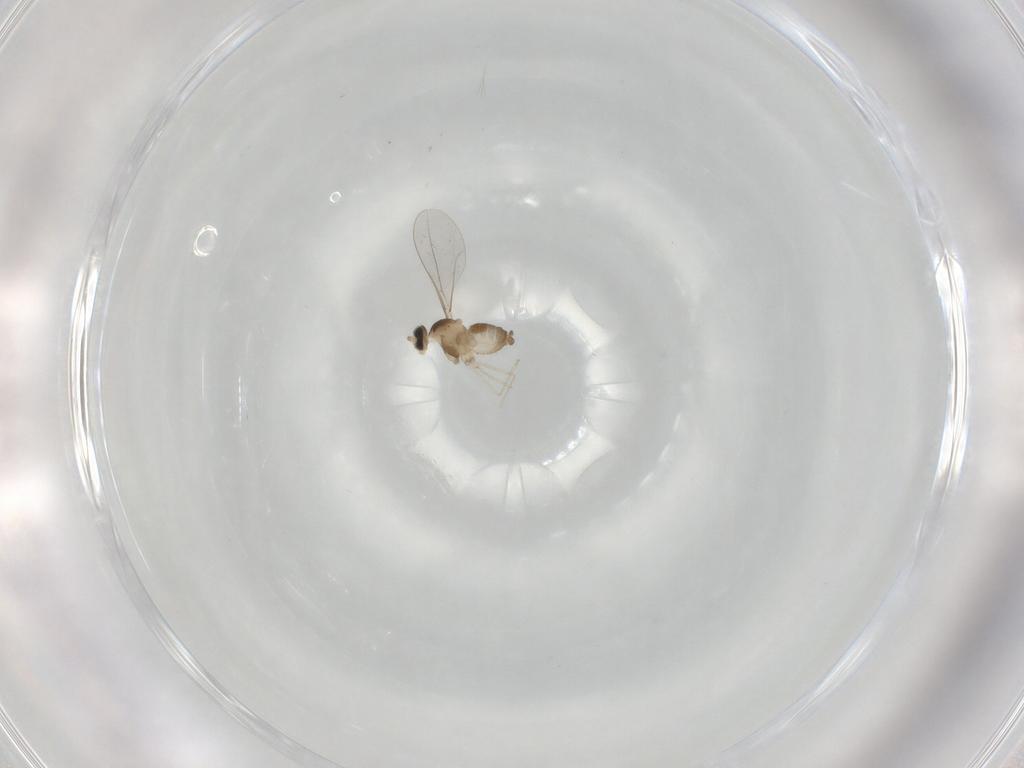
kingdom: Animalia
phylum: Arthropoda
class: Insecta
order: Diptera
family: Cecidomyiidae
